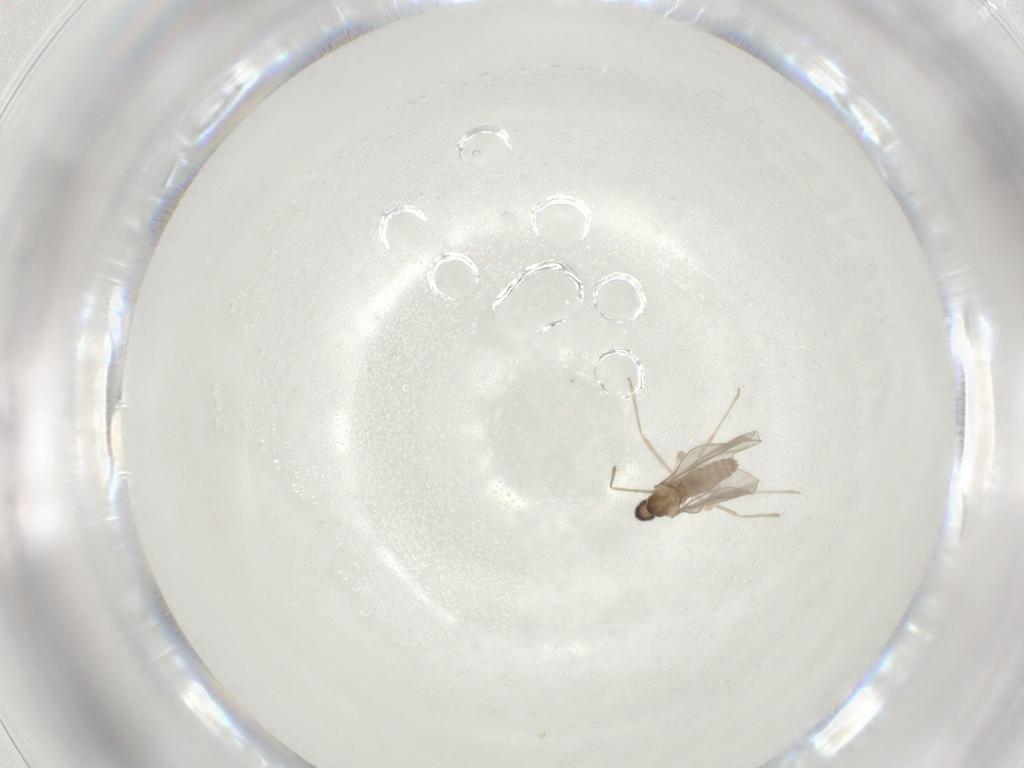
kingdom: Animalia
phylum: Arthropoda
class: Insecta
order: Diptera
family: Cecidomyiidae
